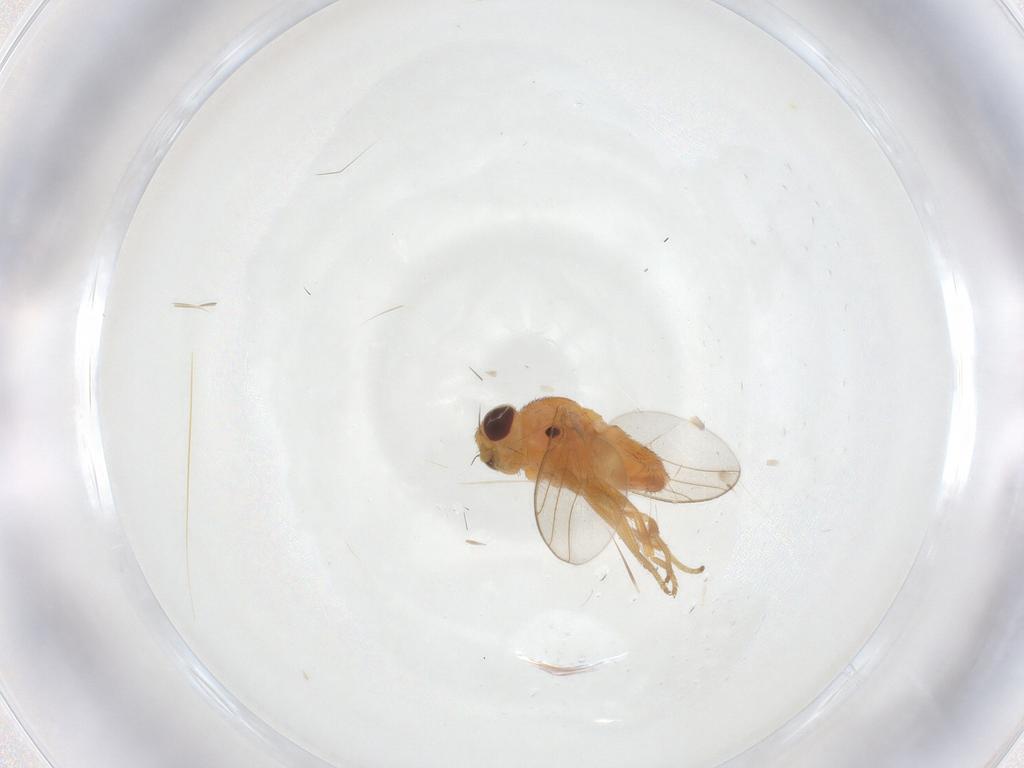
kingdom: Animalia
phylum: Arthropoda
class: Insecta
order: Diptera
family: Chloropidae
